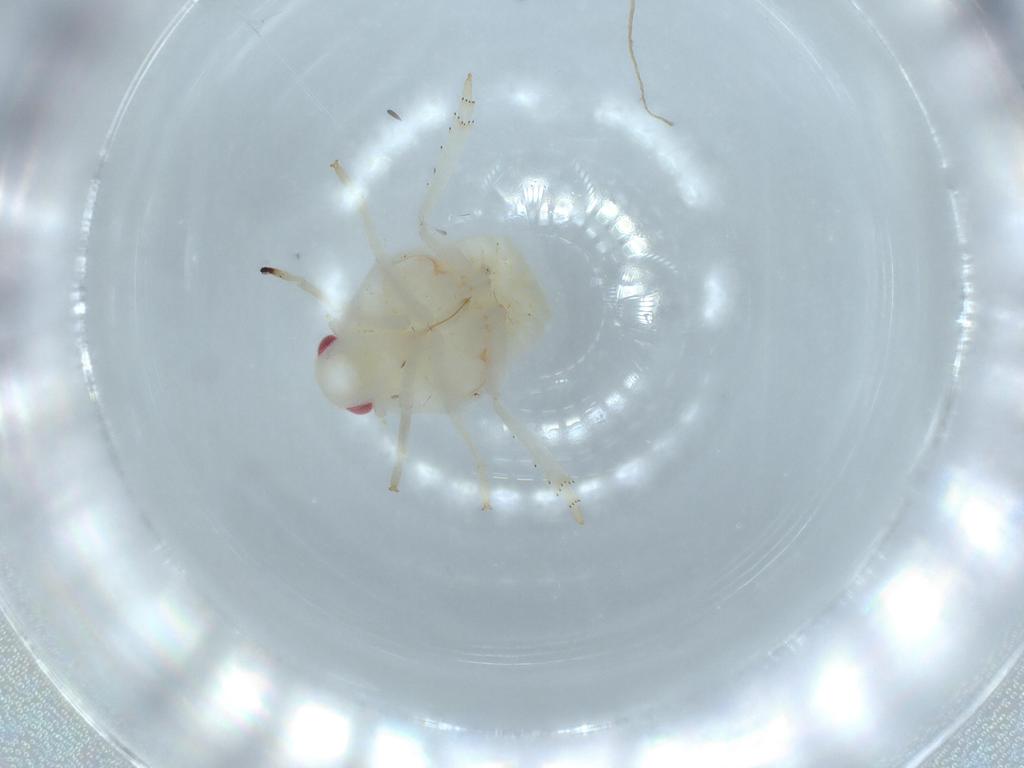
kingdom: Animalia
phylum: Arthropoda
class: Insecta
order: Hemiptera
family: Flatidae
